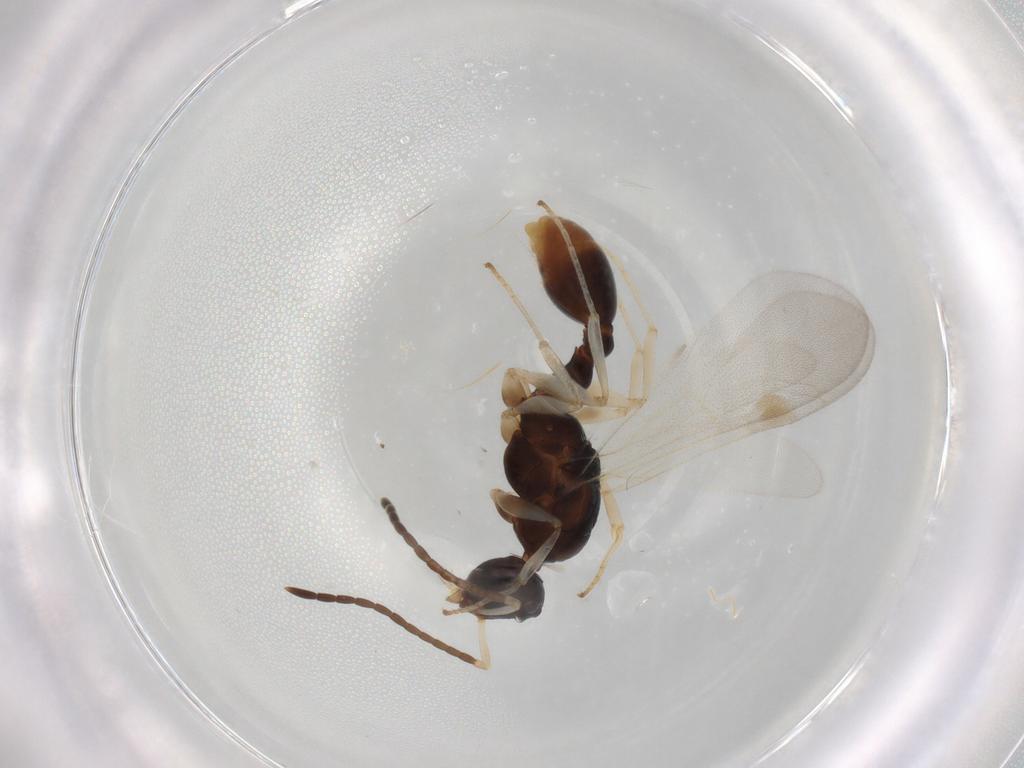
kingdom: Animalia
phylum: Arthropoda
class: Insecta
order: Hymenoptera
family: Formicidae
